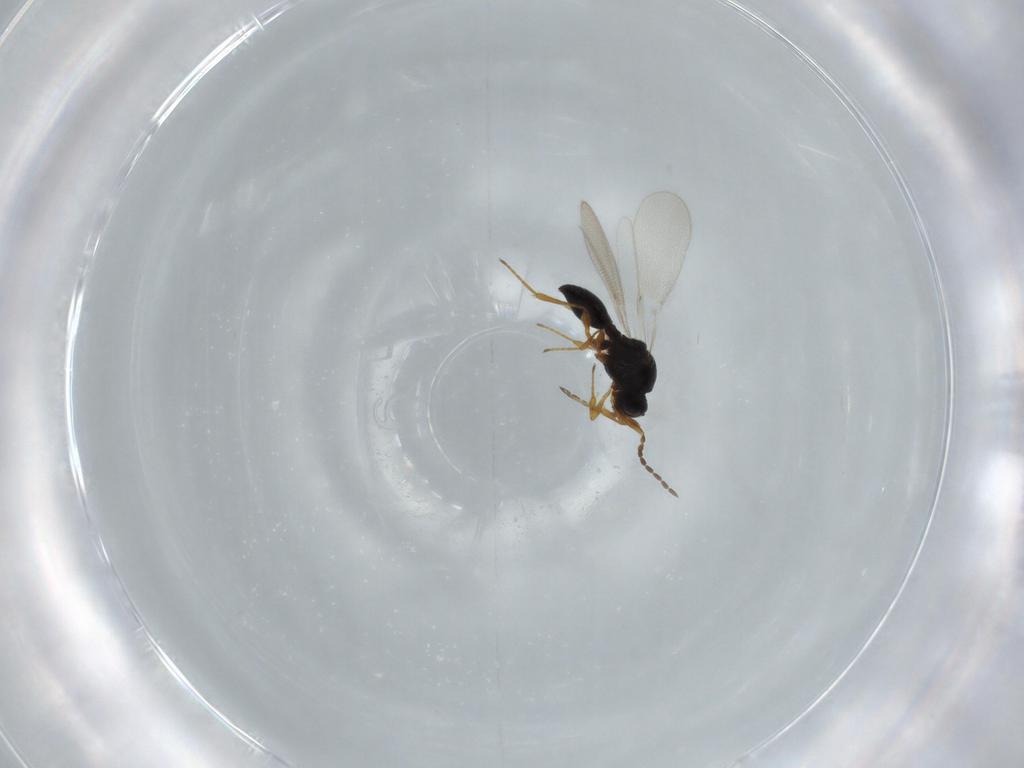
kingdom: Animalia
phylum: Arthropoda
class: Insecta
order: Diptera
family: Mythicomyiidae
